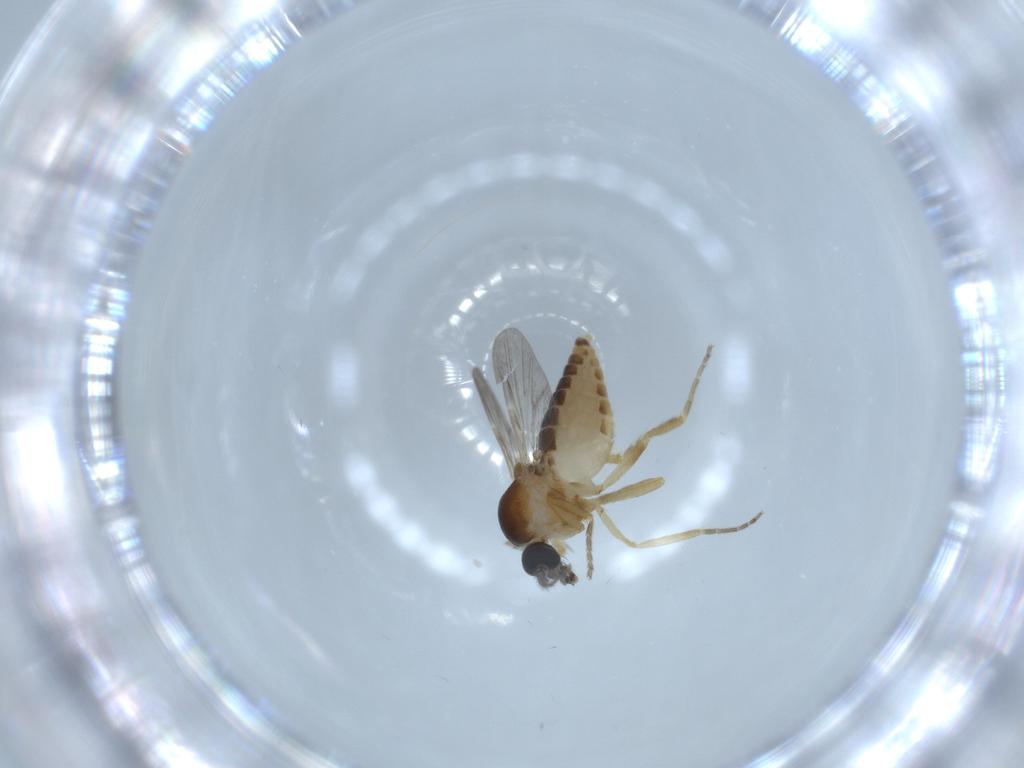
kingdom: Animalia
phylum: Arthropoda
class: Insecta
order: Diptera
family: Ceratopogonidae
